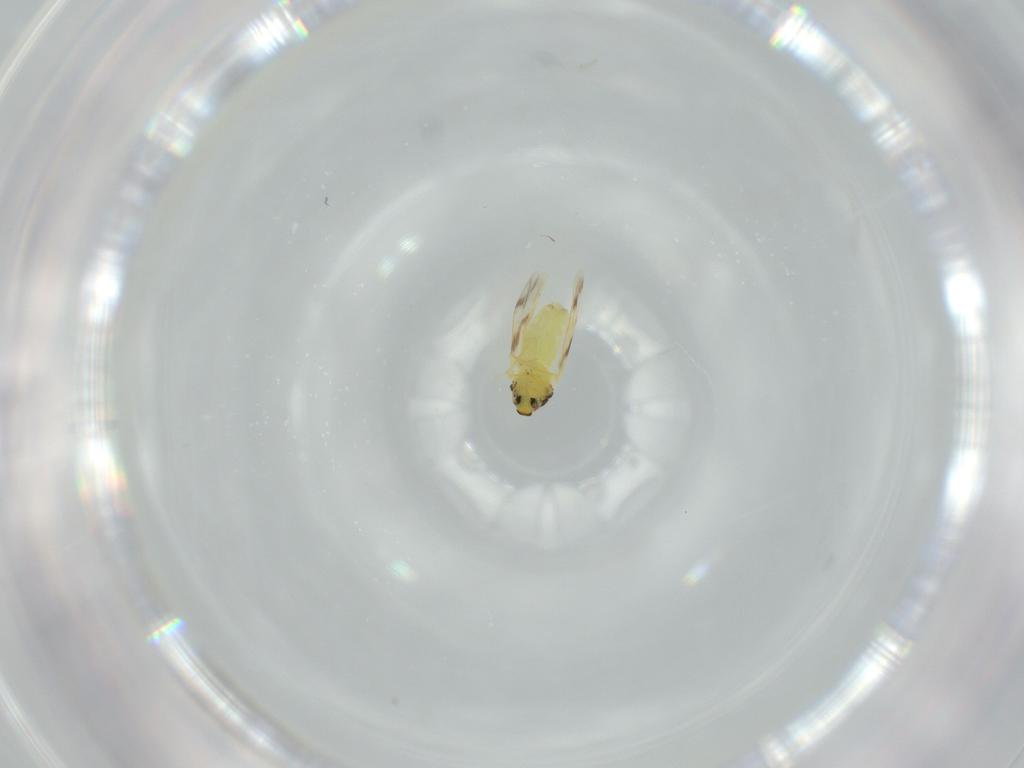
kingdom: Animalia
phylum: Arthropoda
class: Insecta
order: Hemiptera
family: Aleyrodidae
